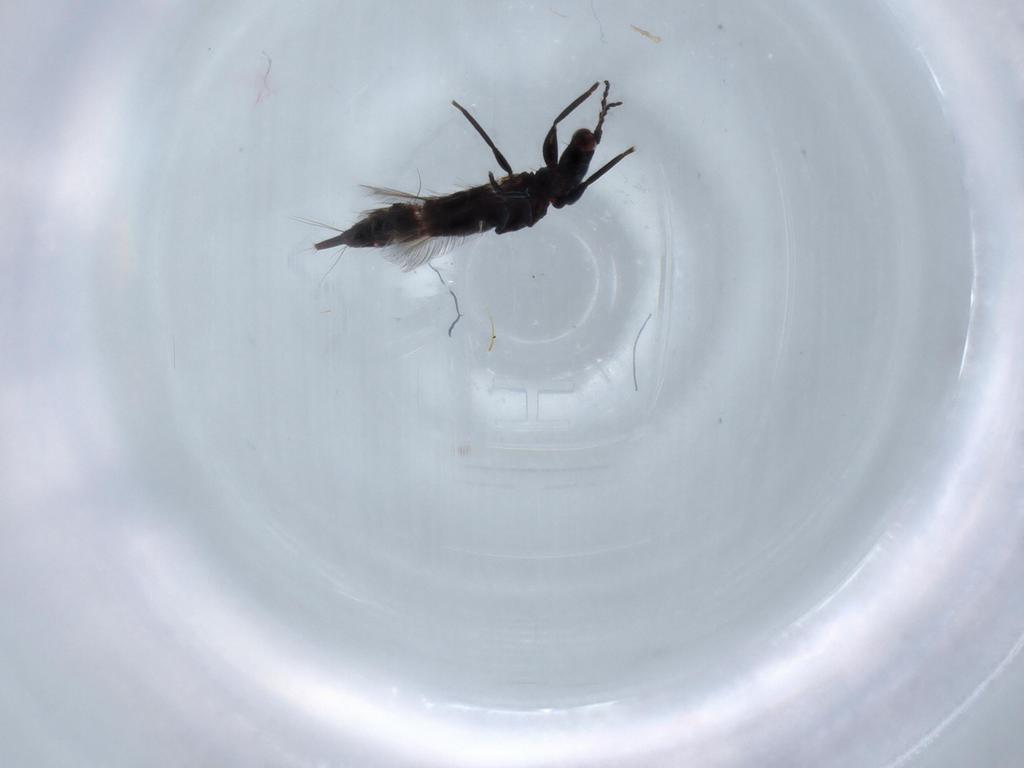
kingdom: Animalia
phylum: Arthropoda
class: Insecta
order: Thysanoptera
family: Phlaeothripidae
